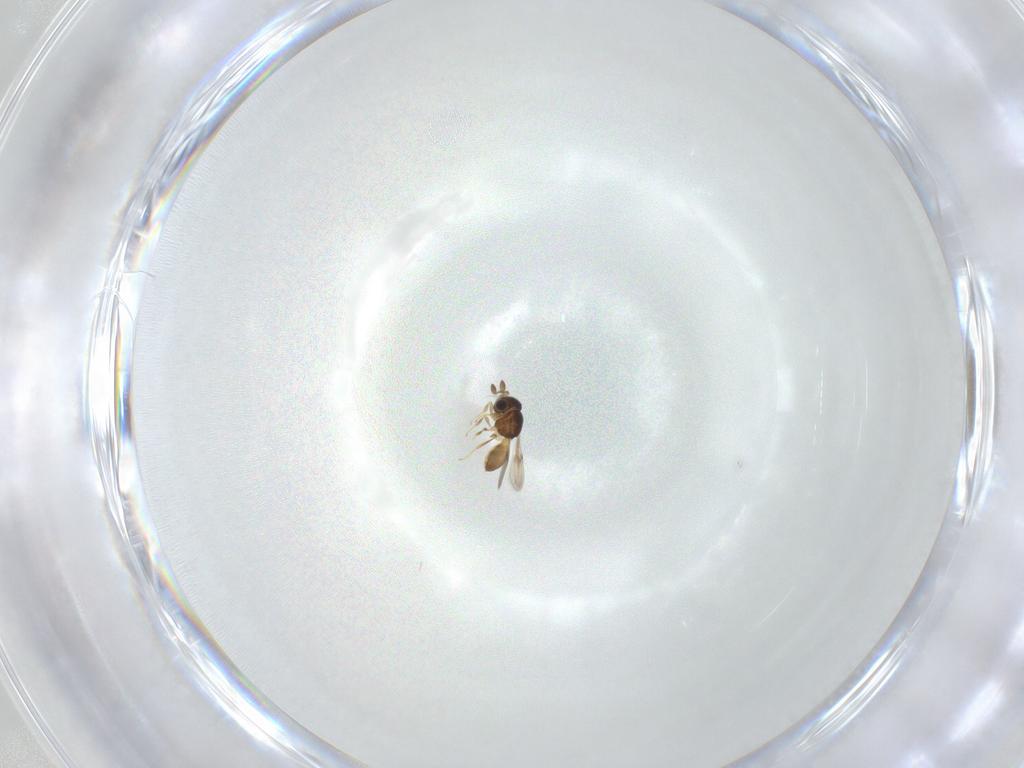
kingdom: Animalia
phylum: Arthropoda
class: Insecta
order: Hymenoptera
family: Scelionidae
